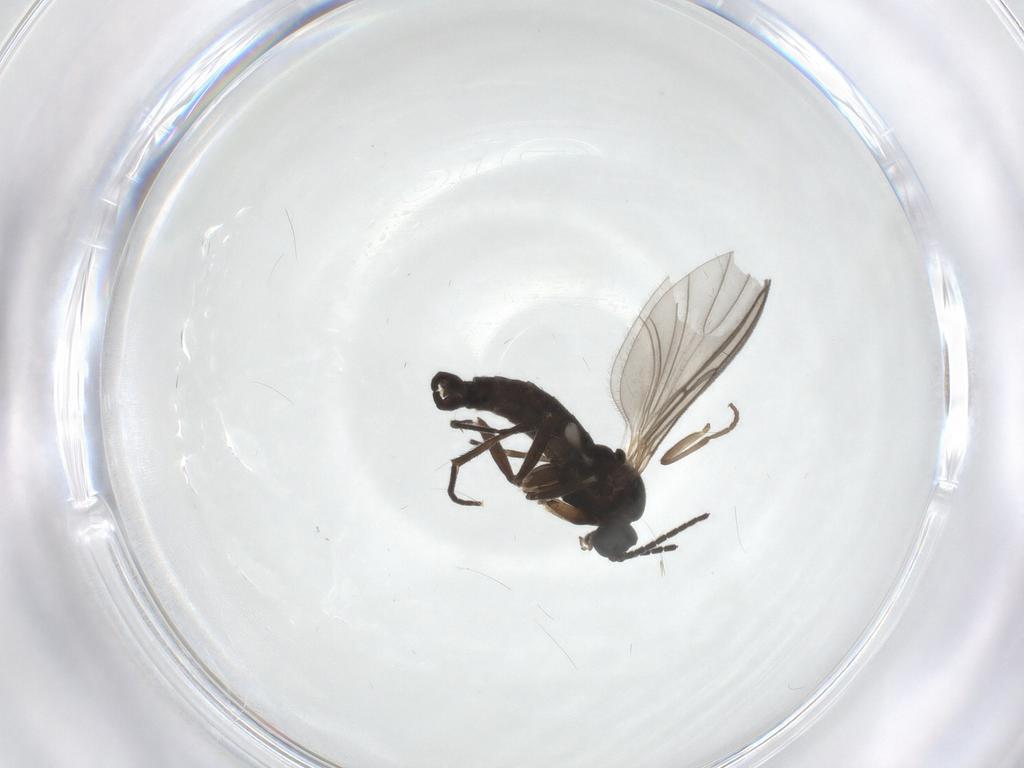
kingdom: Animalia
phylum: Arthropoda
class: Insecta
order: Diptera
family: Sciaridae
